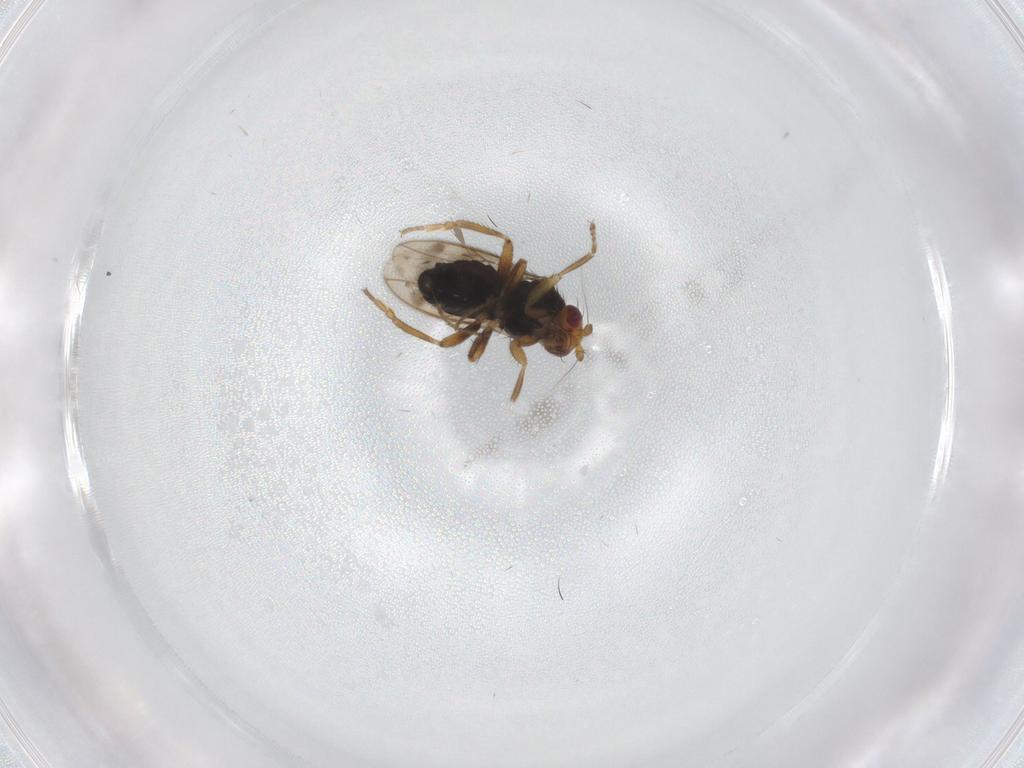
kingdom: Animalia
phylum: Arthropoda
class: Insecta
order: Diptera
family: Sphaeroceridae
